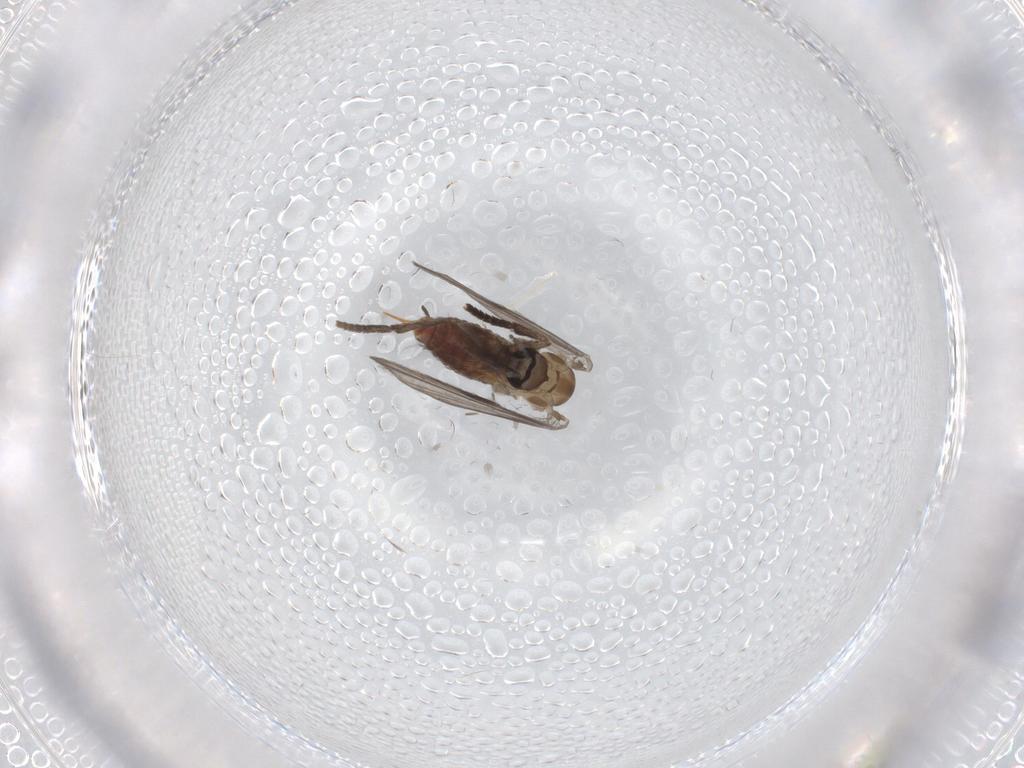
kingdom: Animalia
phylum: Arthropoda
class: Insecta
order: Diptera
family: Psychodidae
